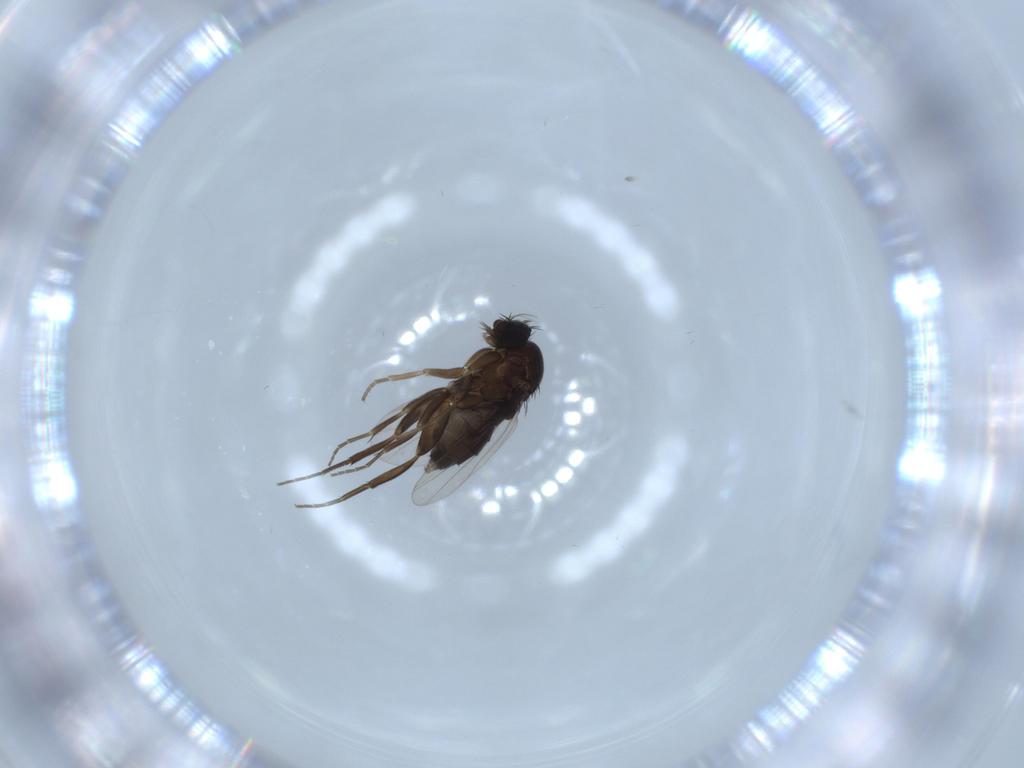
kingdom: Animalia
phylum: Arthropoda
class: Insecta
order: Diptera
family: Phoridae
